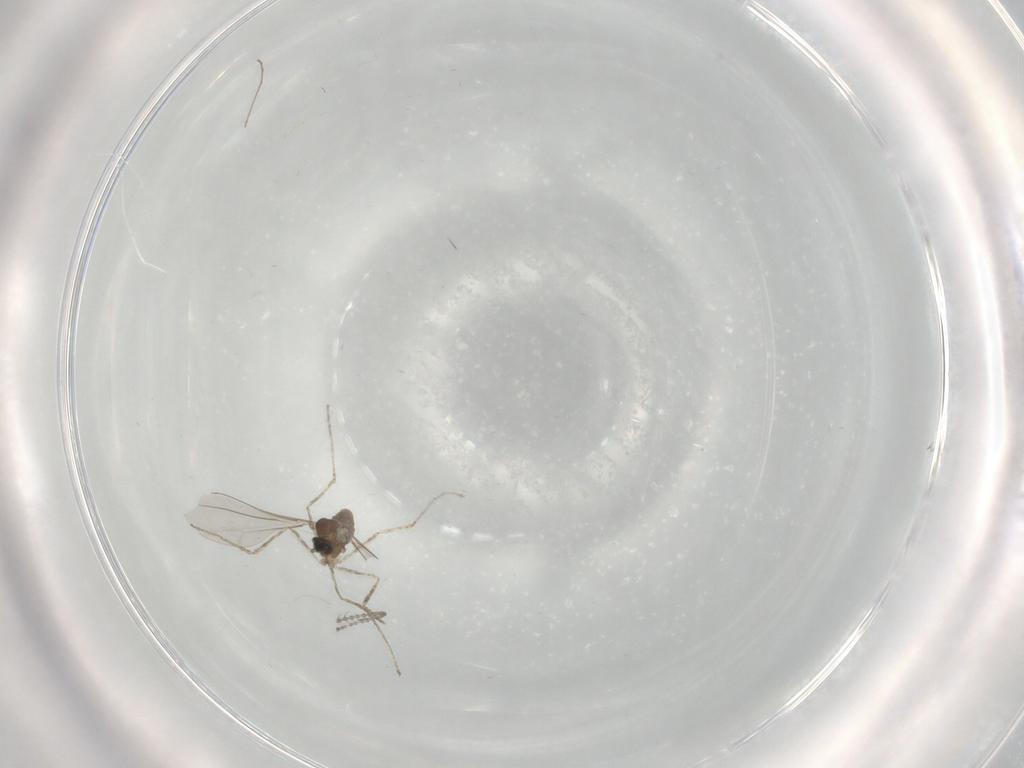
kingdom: Animalia
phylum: Arthropoda
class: Insecta
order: Diptera
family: Cecidomyiidae
